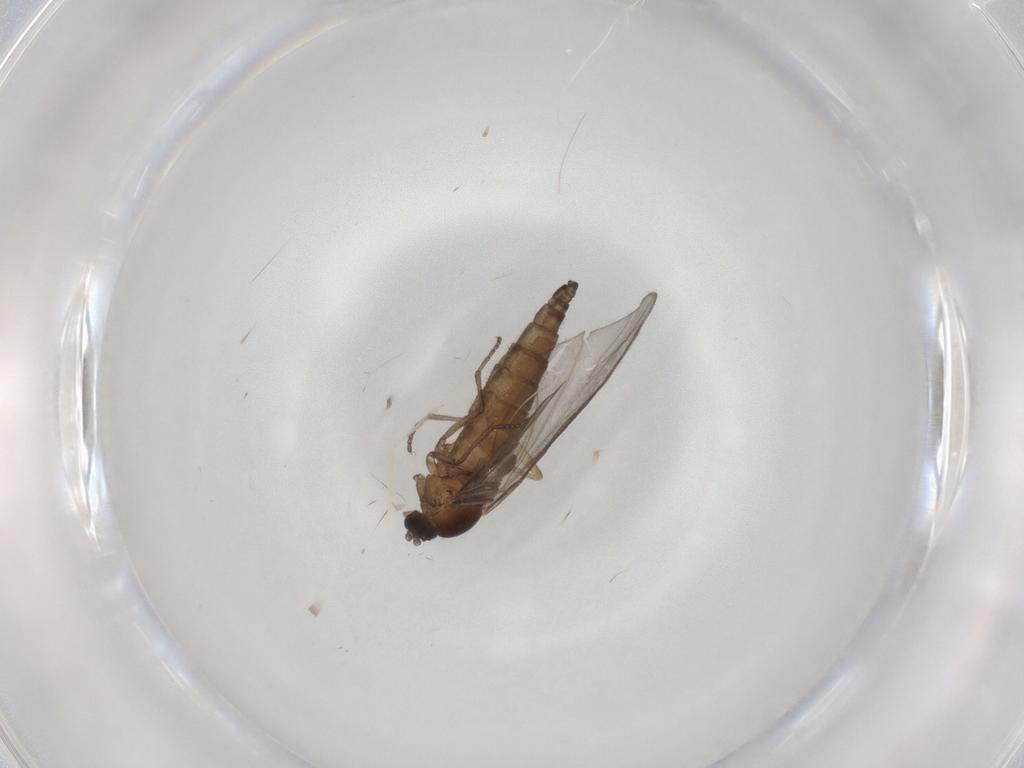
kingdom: Animalia
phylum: Arthropoda
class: Insecta
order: Diptera
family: Sciaridae
